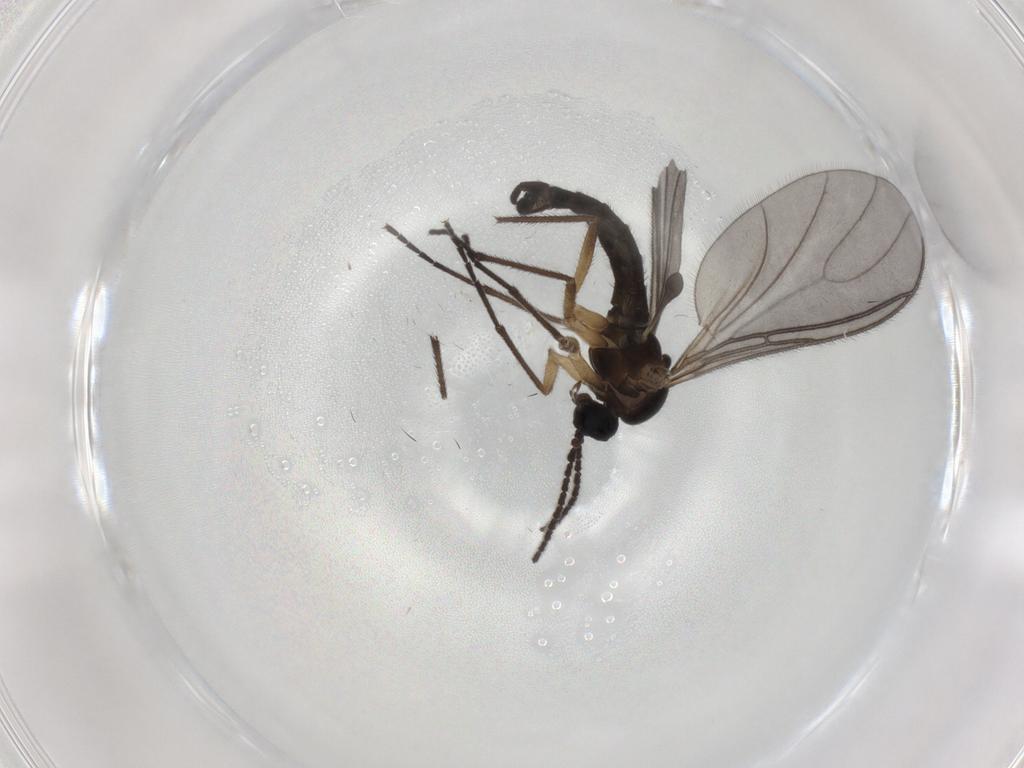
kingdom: Animalia
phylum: Arthropoda
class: Insecta
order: Diptera
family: Sciaridae
